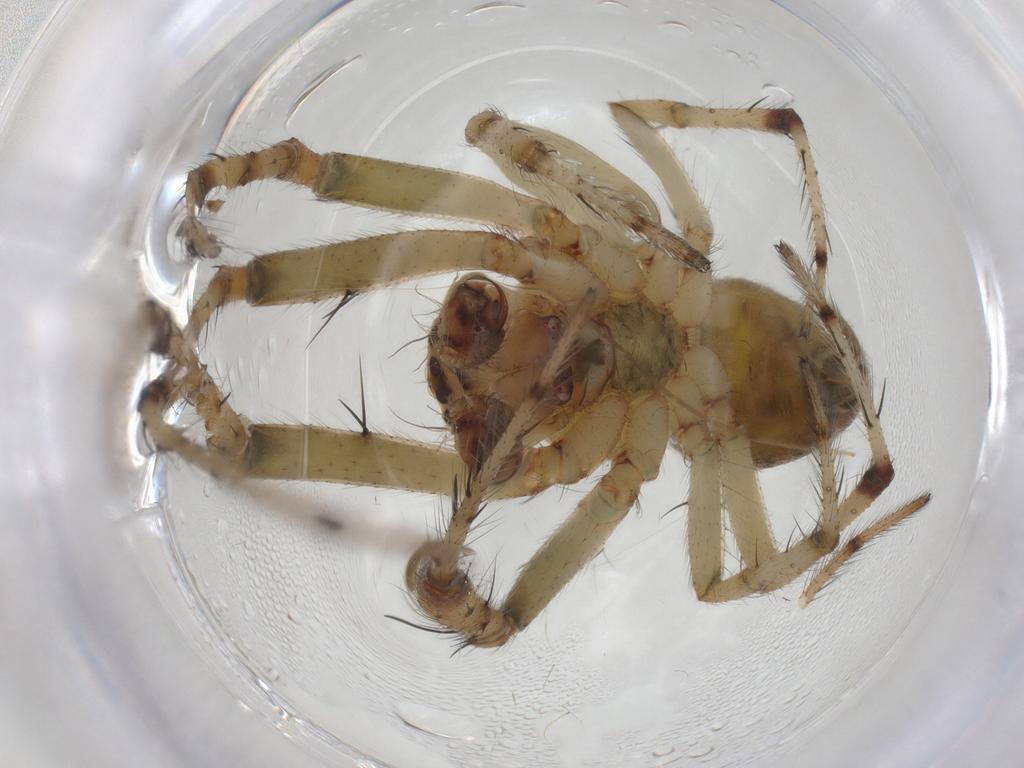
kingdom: Animalia
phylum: Arthropoda
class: Arachnida
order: Araneae
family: Araneidae
